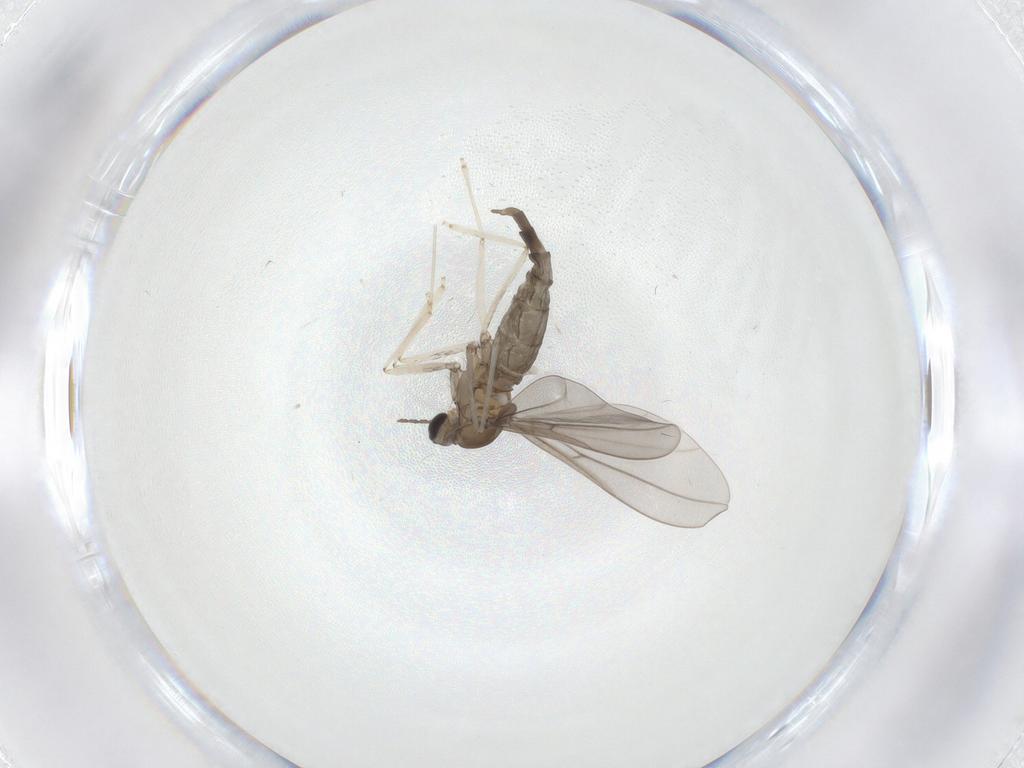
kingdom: Animalia
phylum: Arthropoda
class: Insecta
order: Diptera
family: Cecidomyiidae
